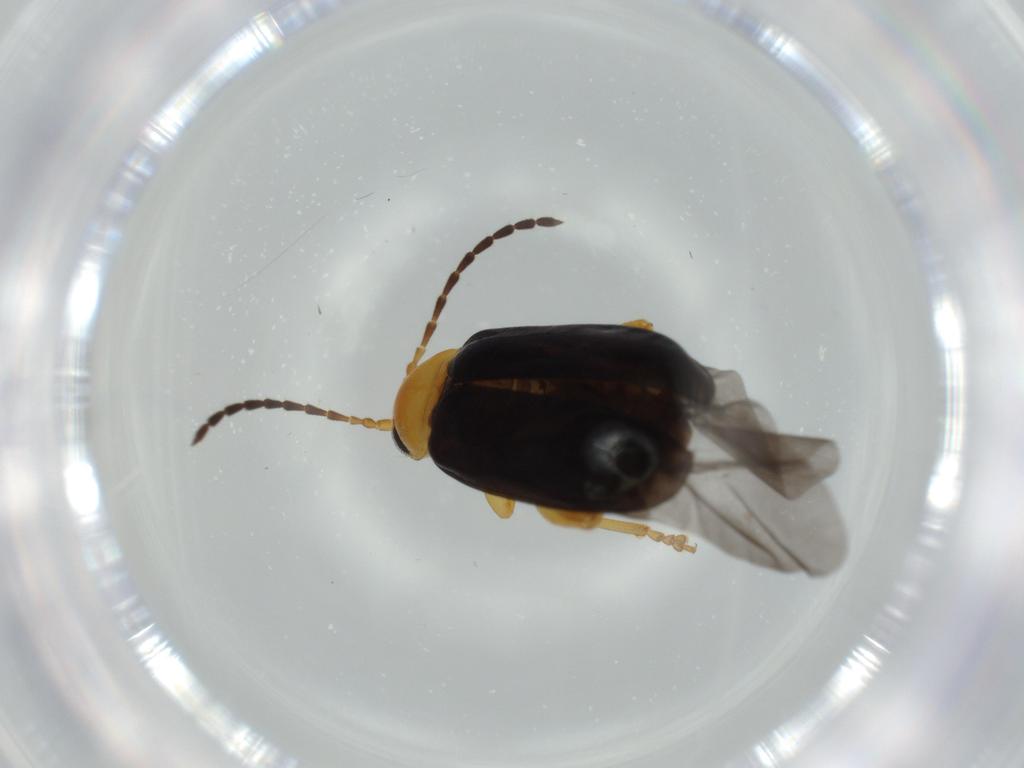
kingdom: Animalia
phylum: Arthropoda
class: Insecta
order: Coleoptera
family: Chrysomelidae
